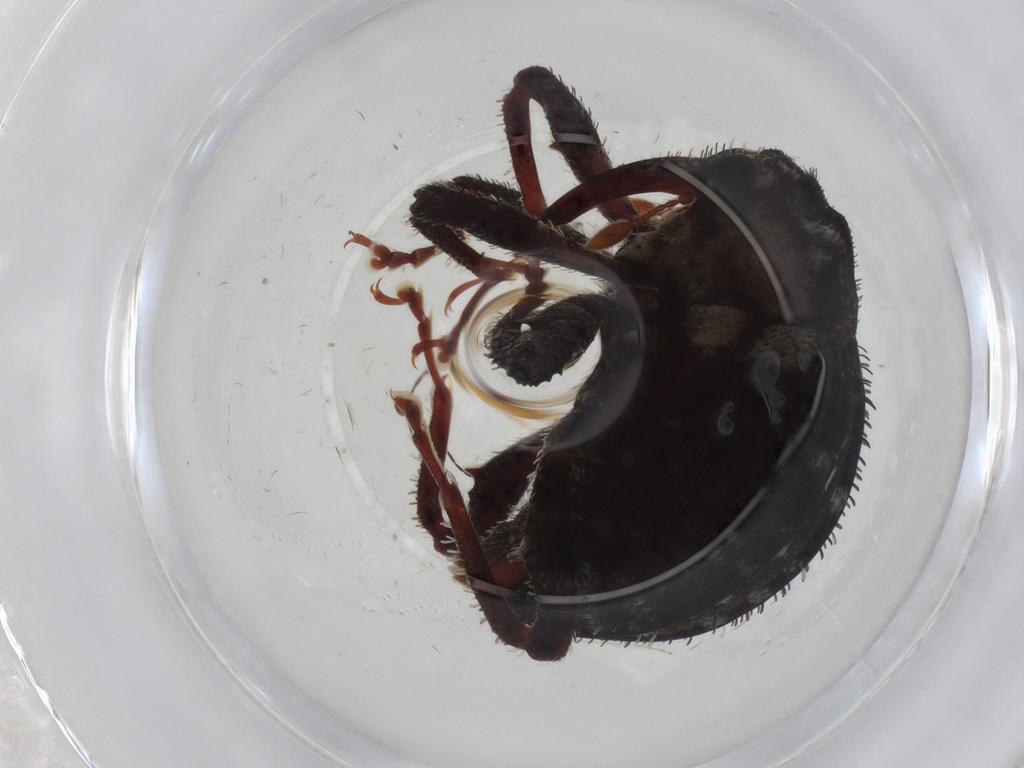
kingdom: Animalia
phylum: Arthropoda
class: Insecta
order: Coleoptera
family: Curculionidae
